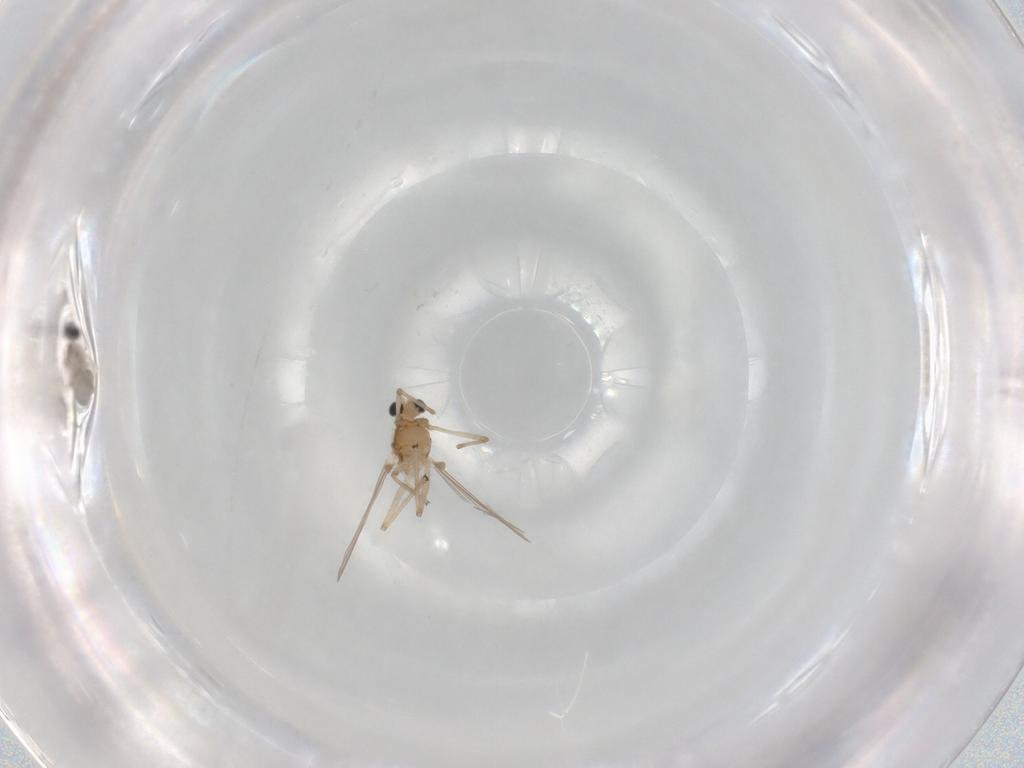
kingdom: Animalia
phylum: Arthropoda
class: Insecta
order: Diptera
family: Chironomidae
